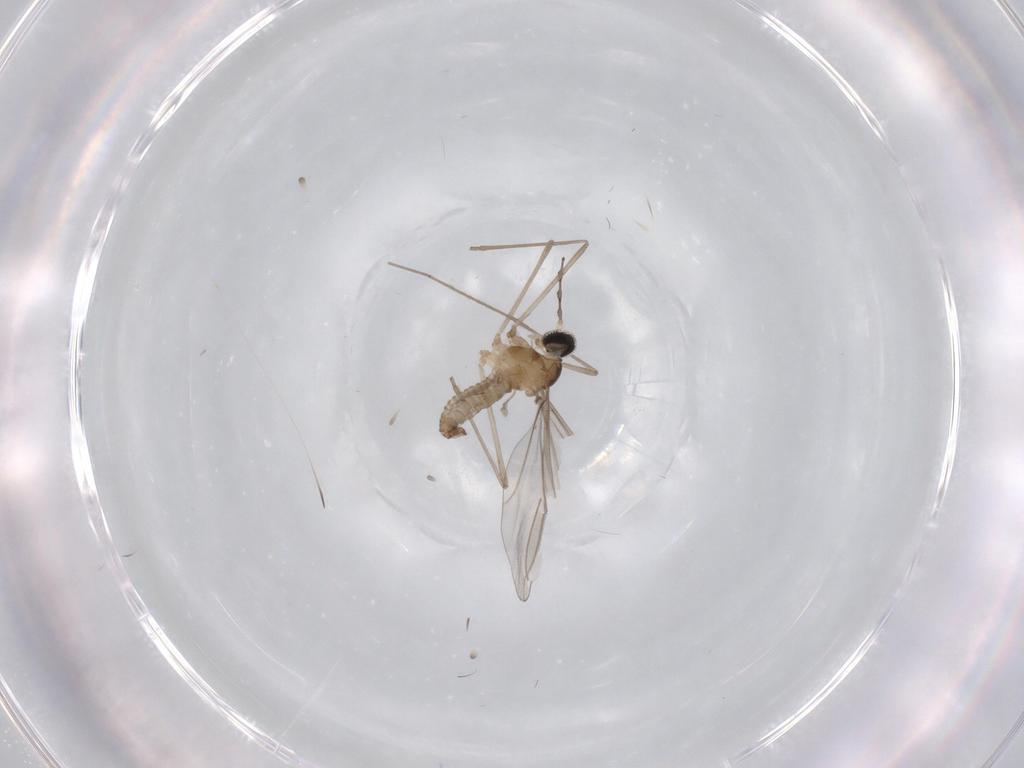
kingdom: Animalia
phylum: Arthropoda
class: Insecta
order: Diptera
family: Cecidomyiidae
